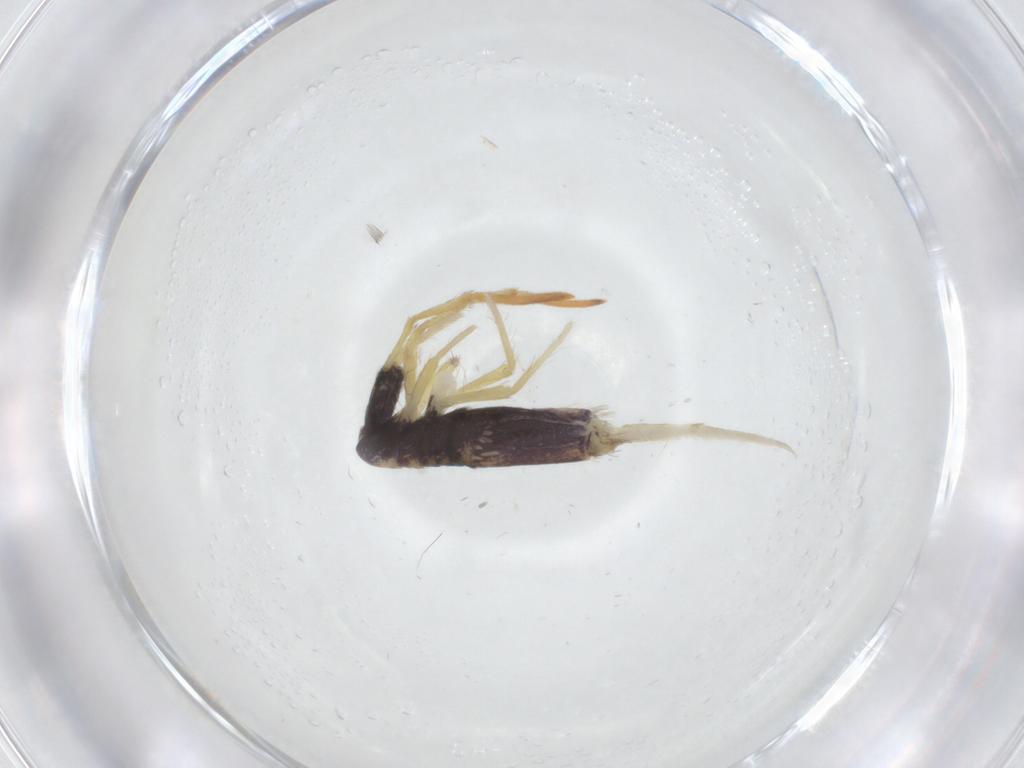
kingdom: Animalia
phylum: Arthropoda
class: Collembola
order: Entomobryomorpha
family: Entomobryidae
